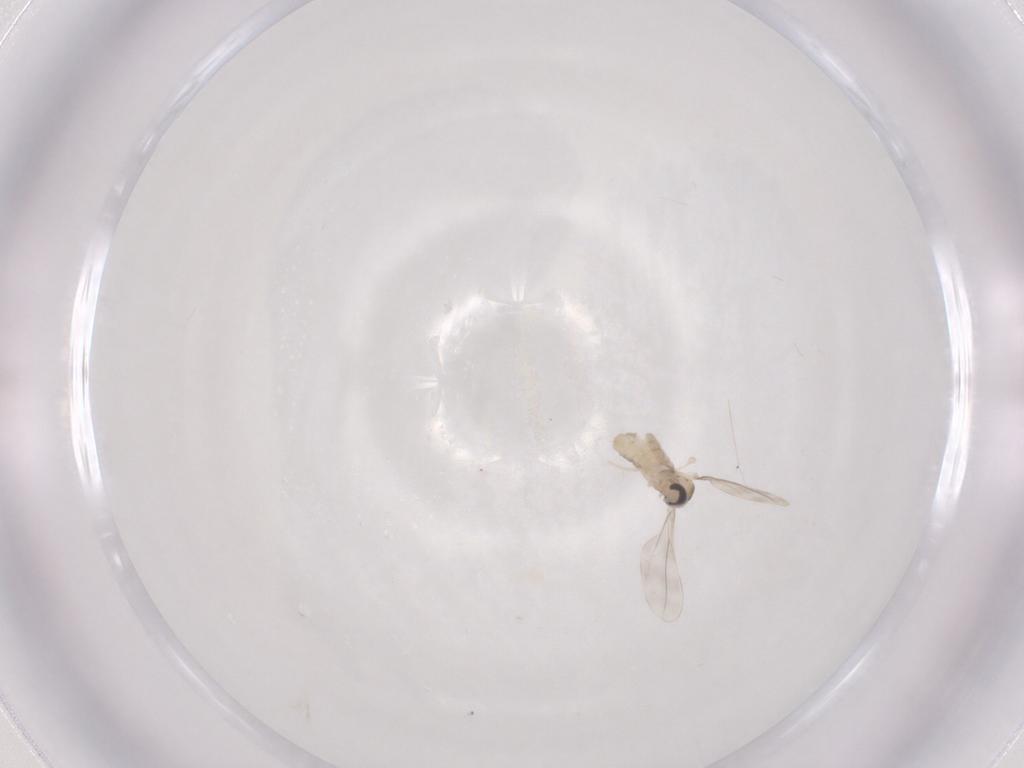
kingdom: Animalia
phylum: Arthropoda
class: Insecta
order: Diptera
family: Cecidomyiidae
